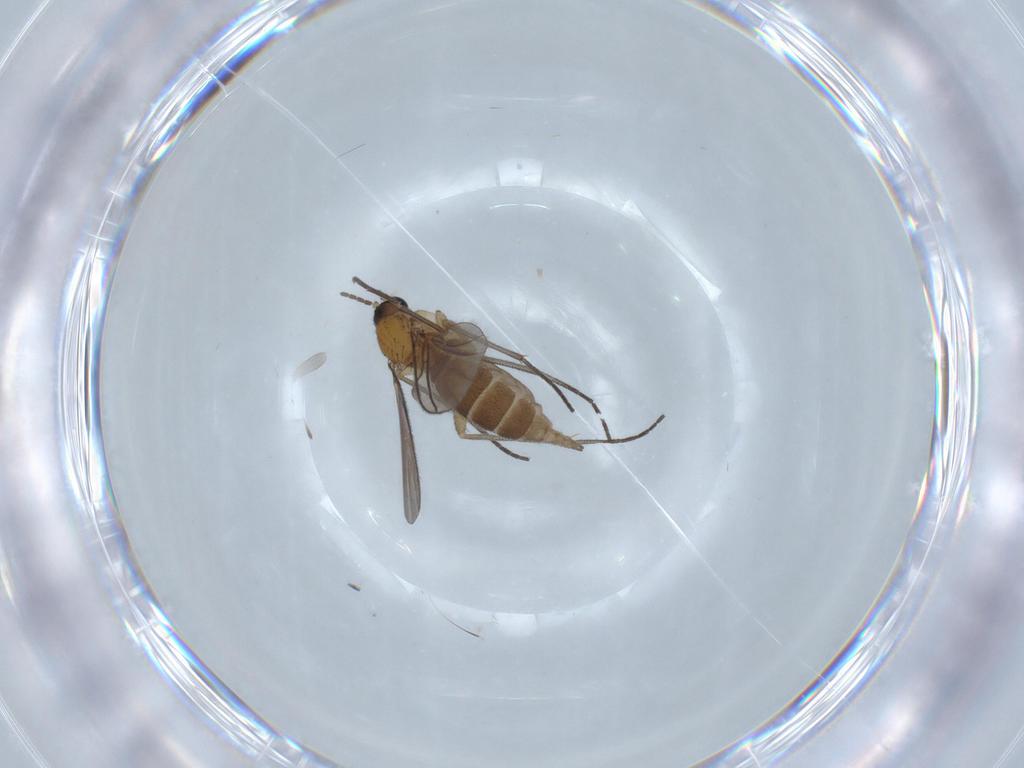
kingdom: Animalia
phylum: Arthropoda
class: Insecta
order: Diptera
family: Sciaridae
